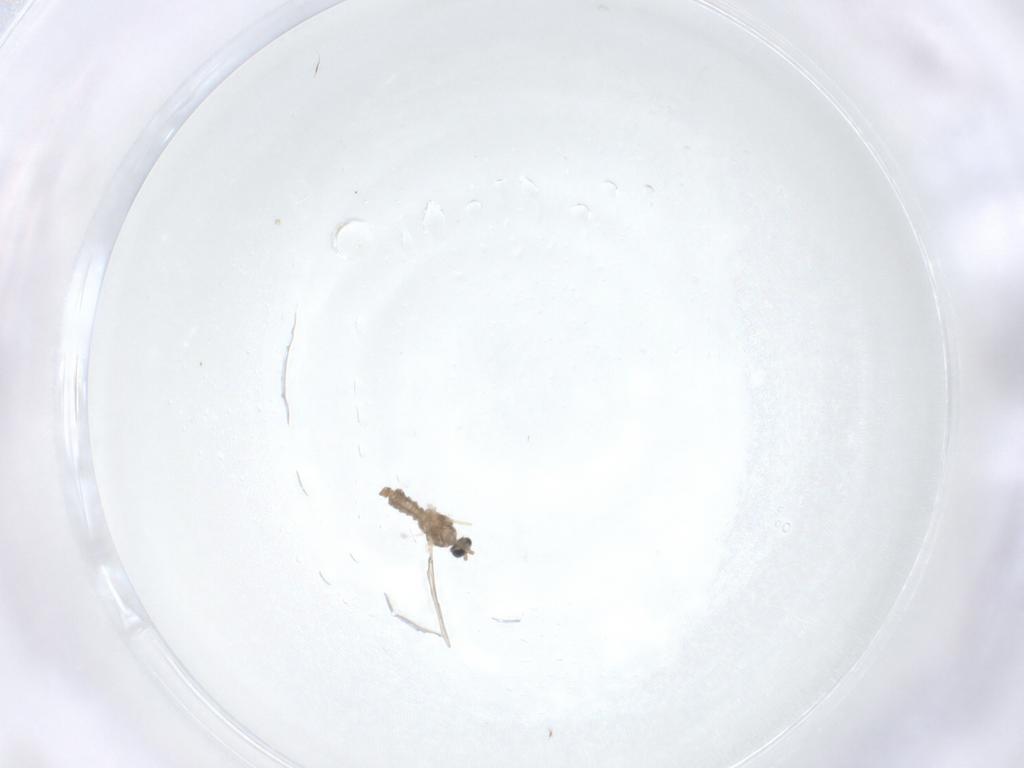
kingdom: Animalia
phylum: Arthropoda
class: Insecta
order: Diptera
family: Cecidomyiidae
